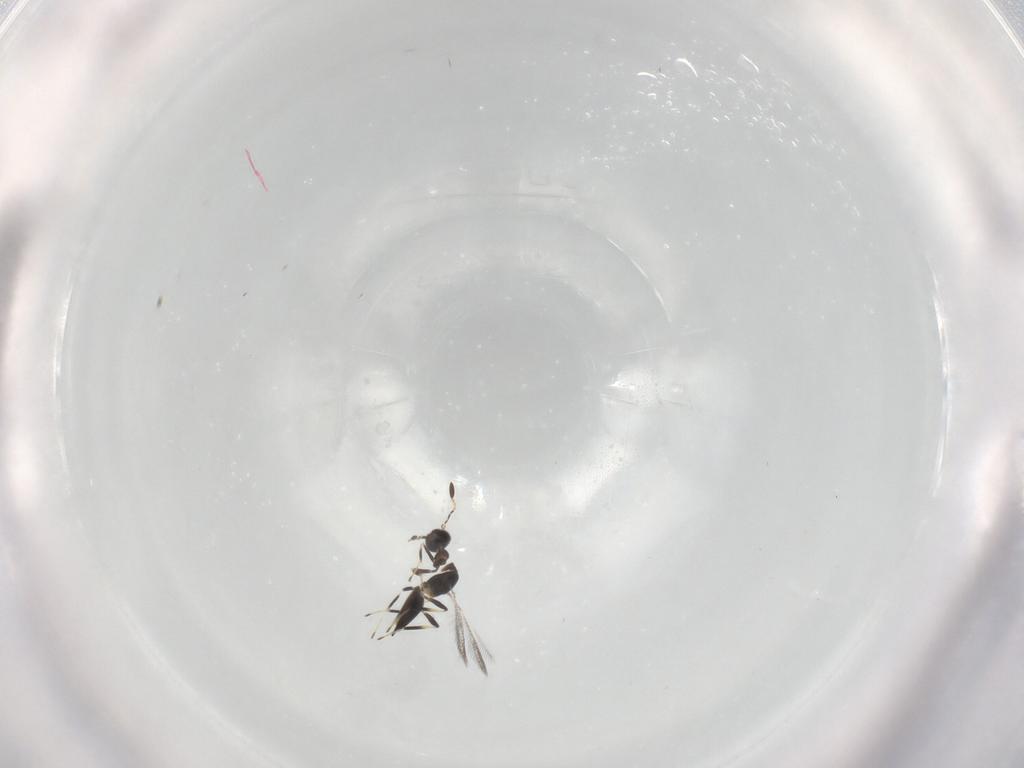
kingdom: Animalia
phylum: Arthropoda
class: Insecta
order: Hymenoptera
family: Mymaridae
